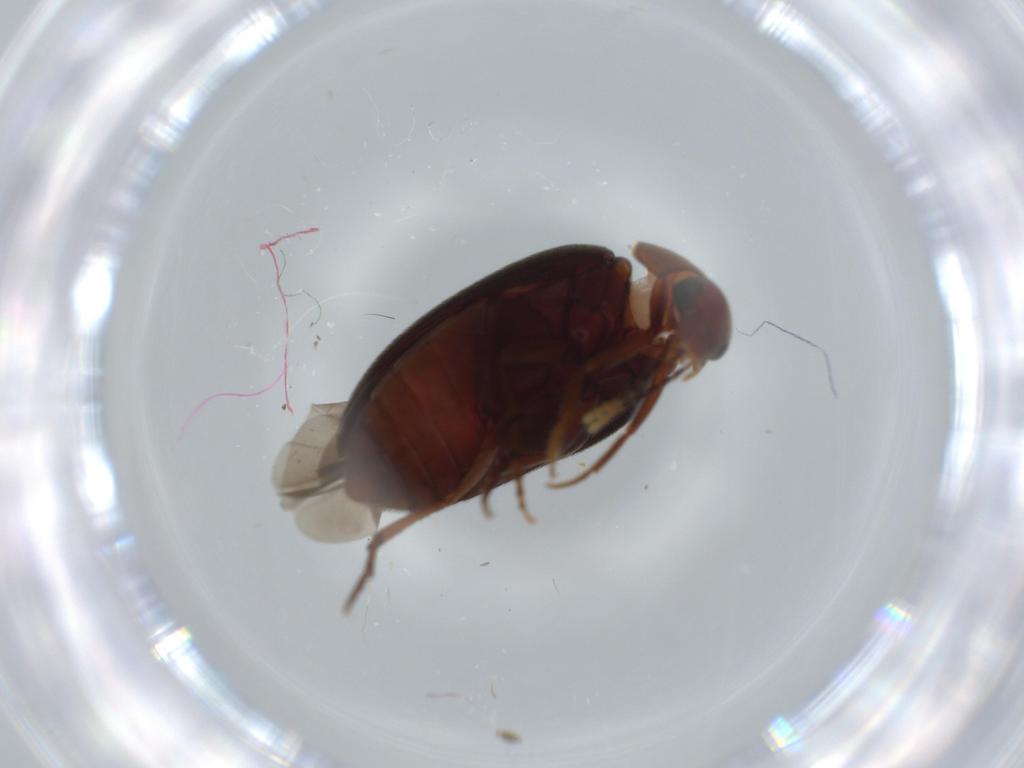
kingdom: Animalia
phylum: Arthropoda
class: Insecta
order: Coleoptera
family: Eucinetidae
